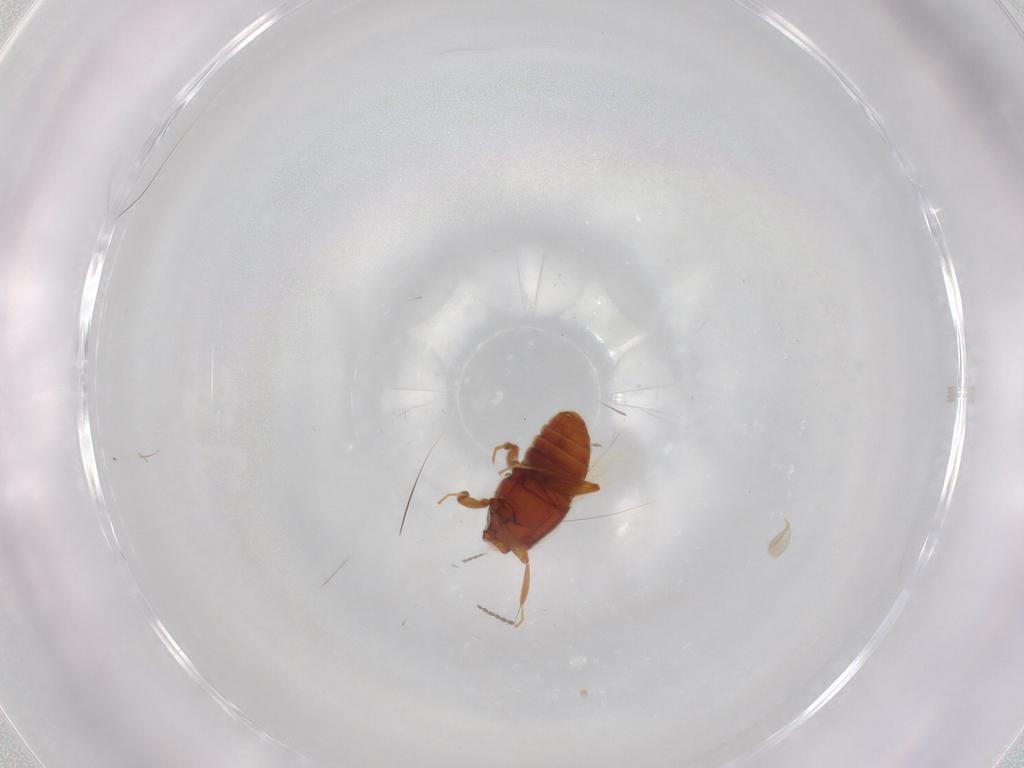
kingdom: Animalia
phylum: Arthropoda
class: Insecta
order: Coleoptera
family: Staphylinidae
